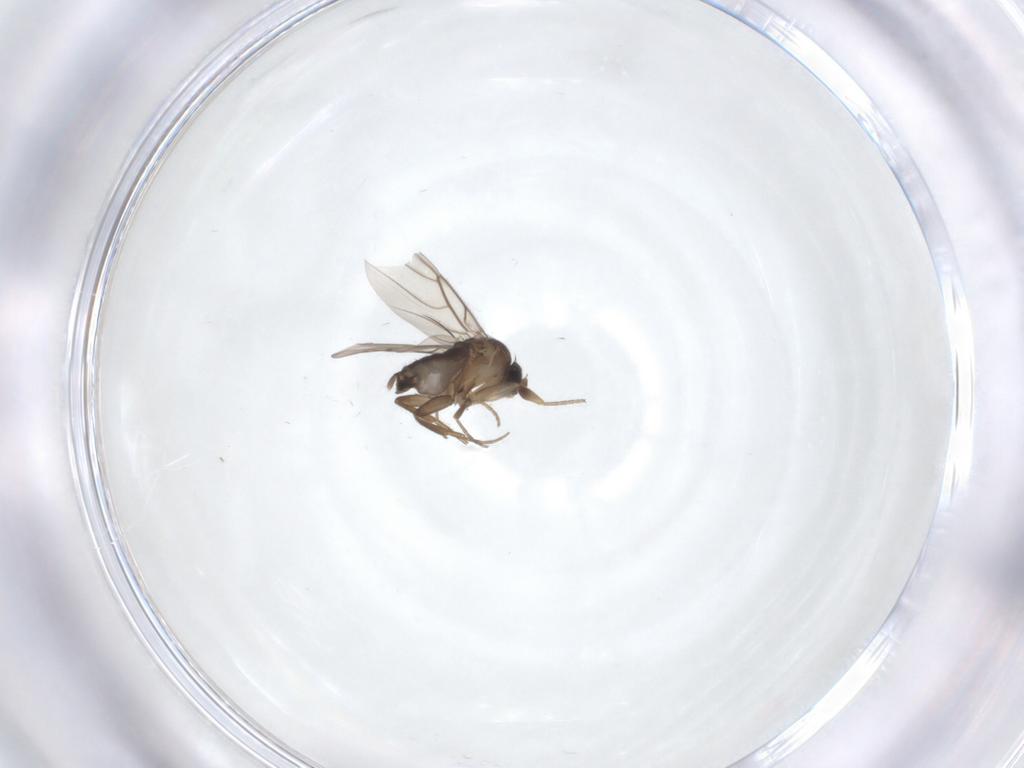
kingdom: Animalia
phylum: Arthropoda
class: Insecta
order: Diptera
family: Phoridae
